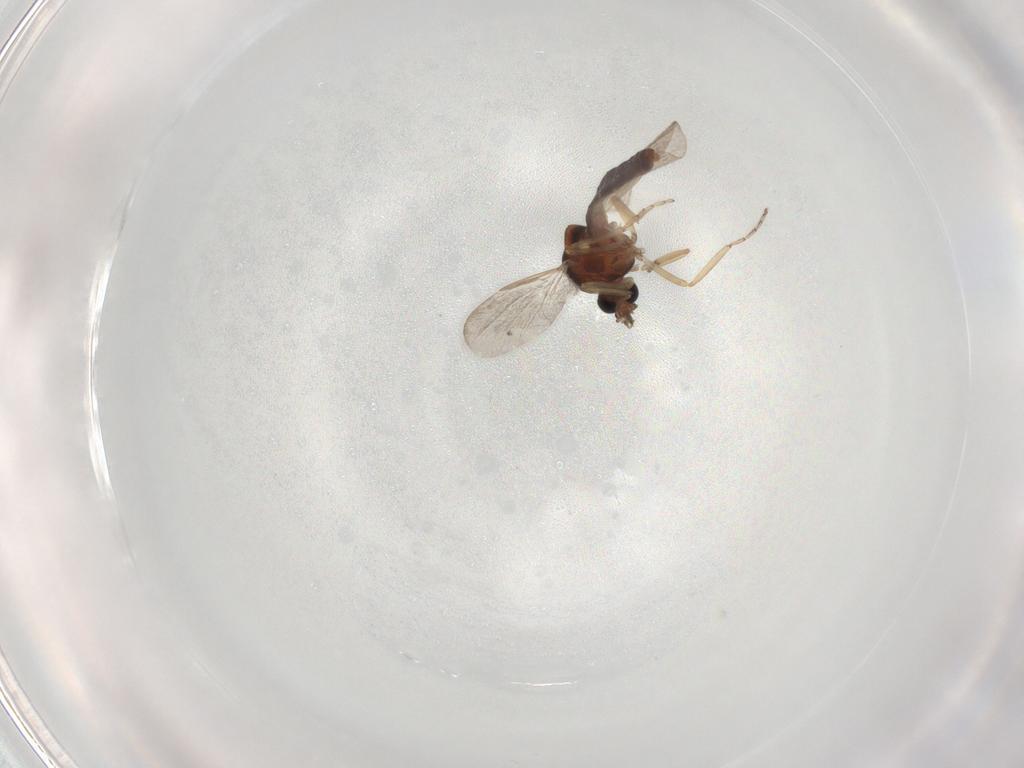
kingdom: Animalia
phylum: Arthropoda
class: Insecta
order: Diptera
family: Ceratopogonidae
